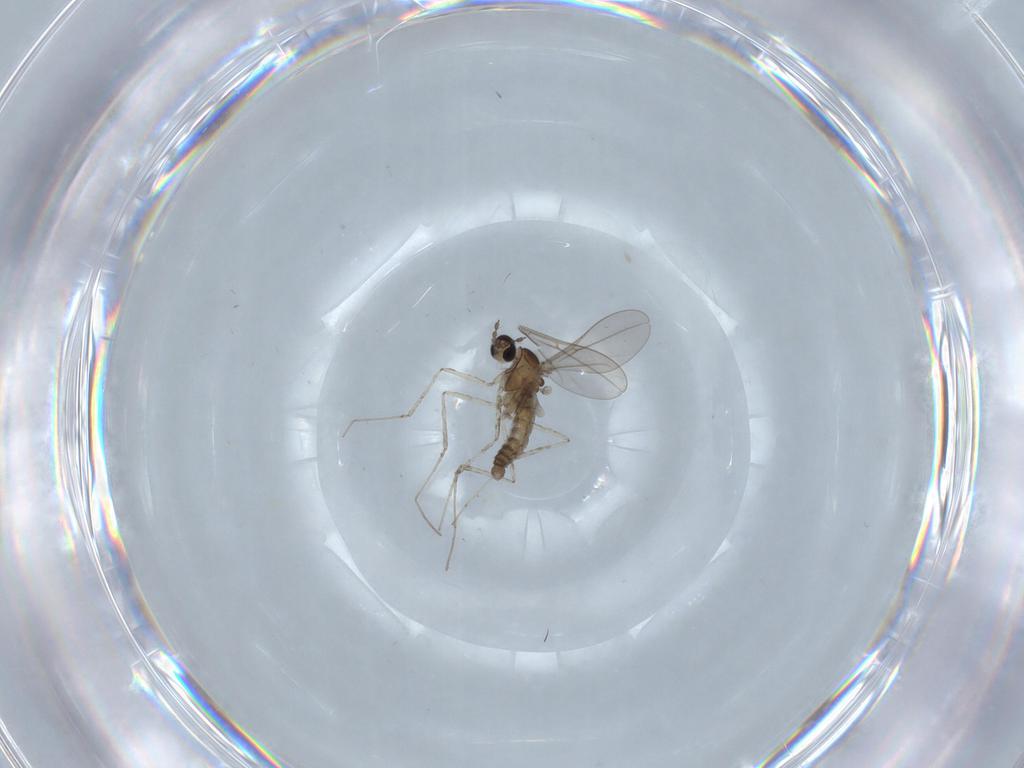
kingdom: Animalia
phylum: Arthropoda
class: Insecta
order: Diptera
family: Cecidomyiidae
